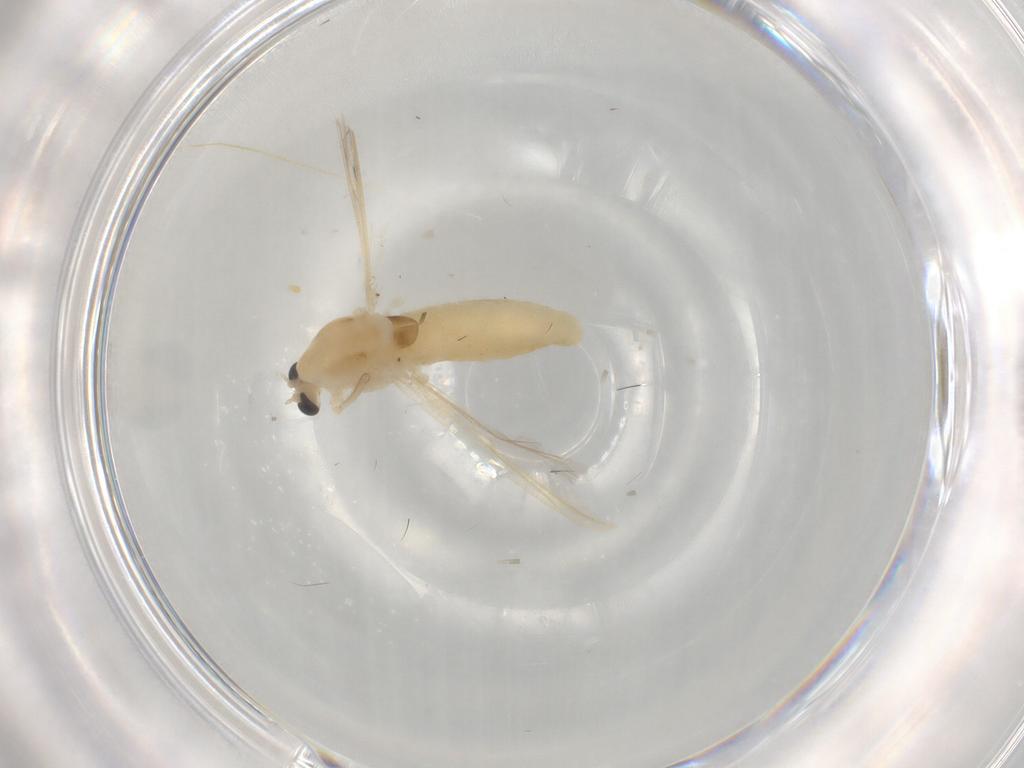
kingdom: Animalia
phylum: Arthropoda
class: Insecta
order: Diptera
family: Chironomidae
